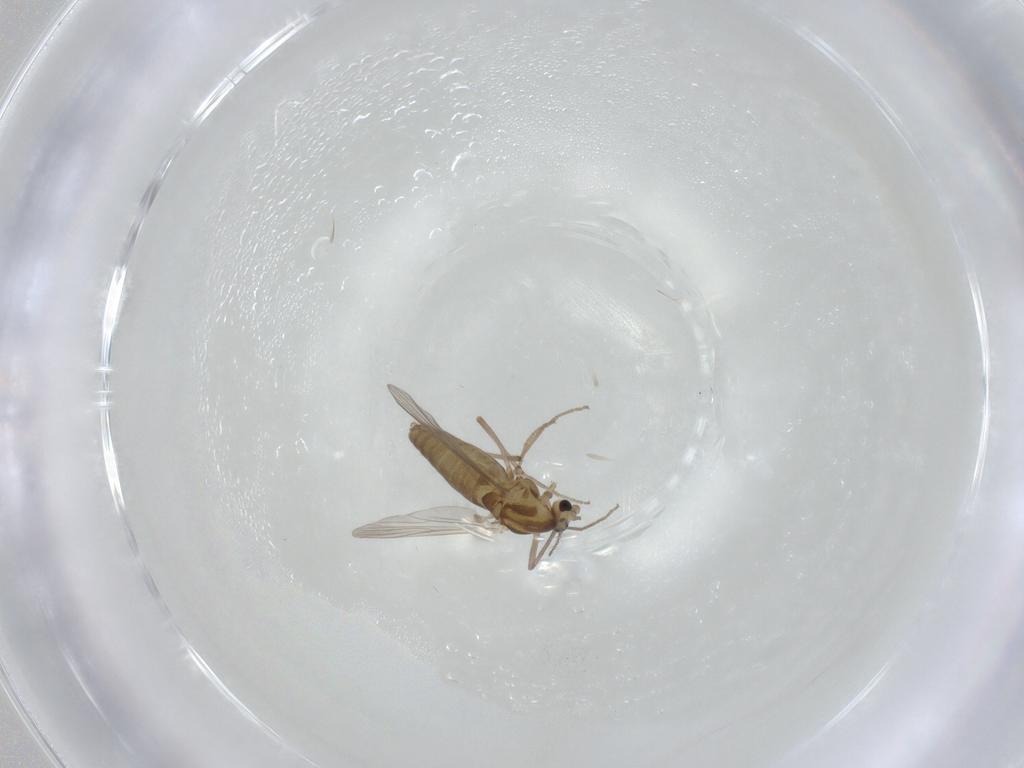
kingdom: Animalia
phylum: Arthropoda
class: Insecta
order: Diptera
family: Chironomidae
